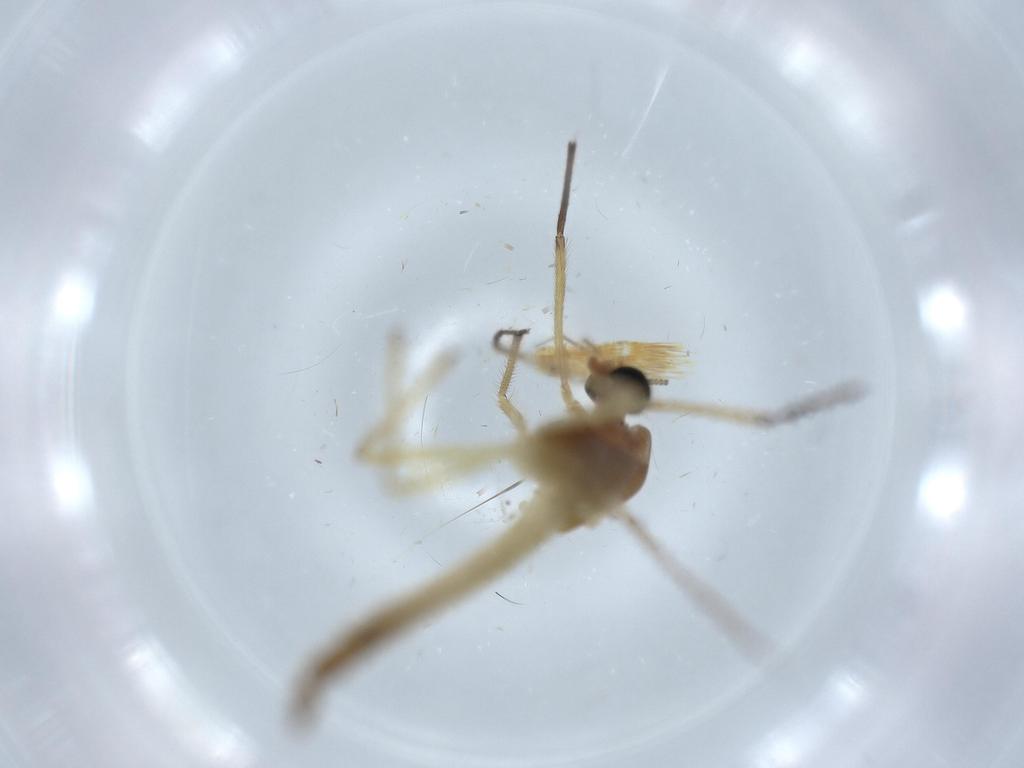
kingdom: Animalia
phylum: Arthropoda
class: Insecta
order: Diptera
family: Chironomidae
